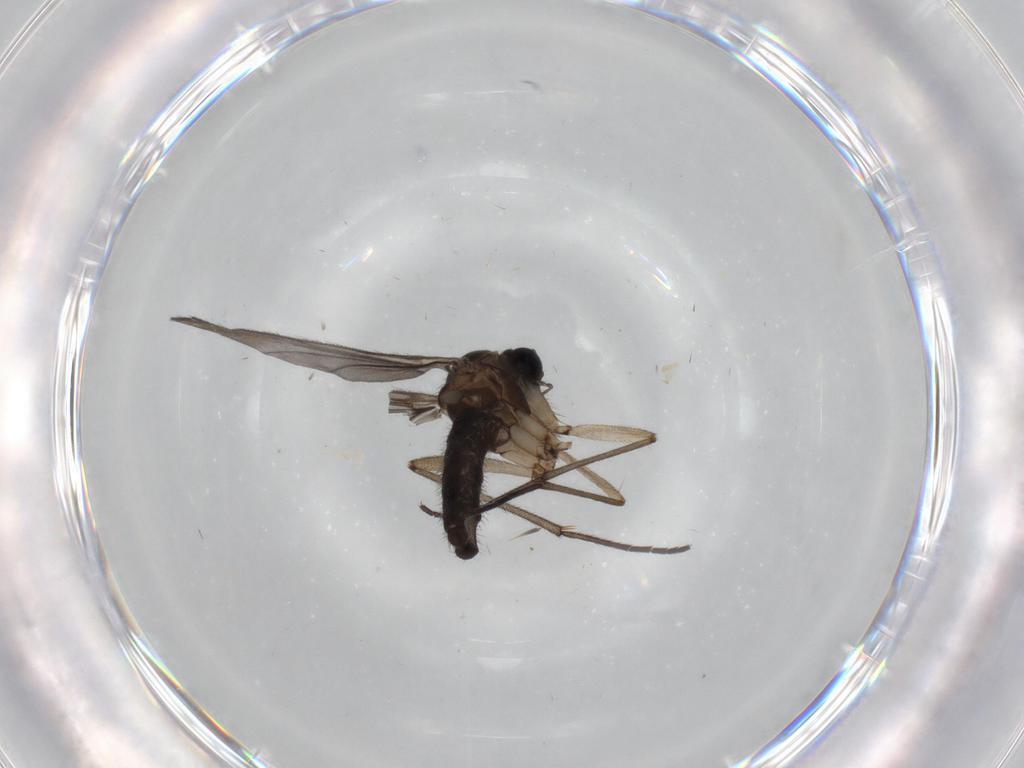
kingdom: Animalia
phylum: Arthropoda
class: Insecta
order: Diptera
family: Sciaridae
